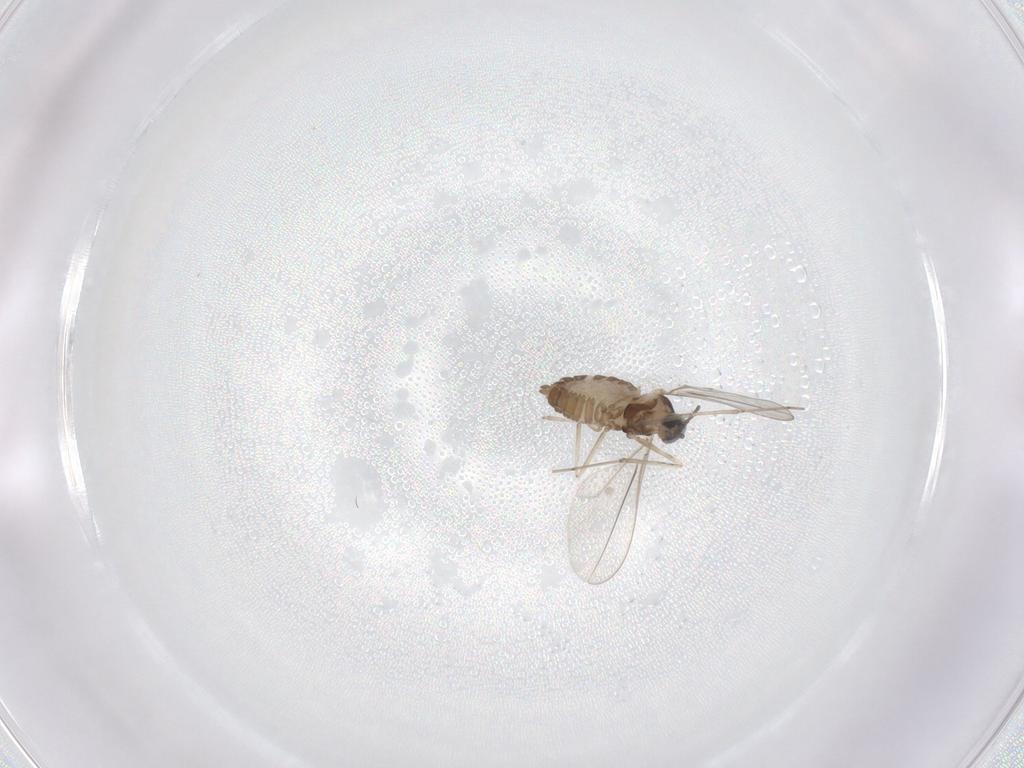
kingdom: Animalia
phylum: Arthropoda
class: Insecta
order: Diptera
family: Cecidomyiidae
